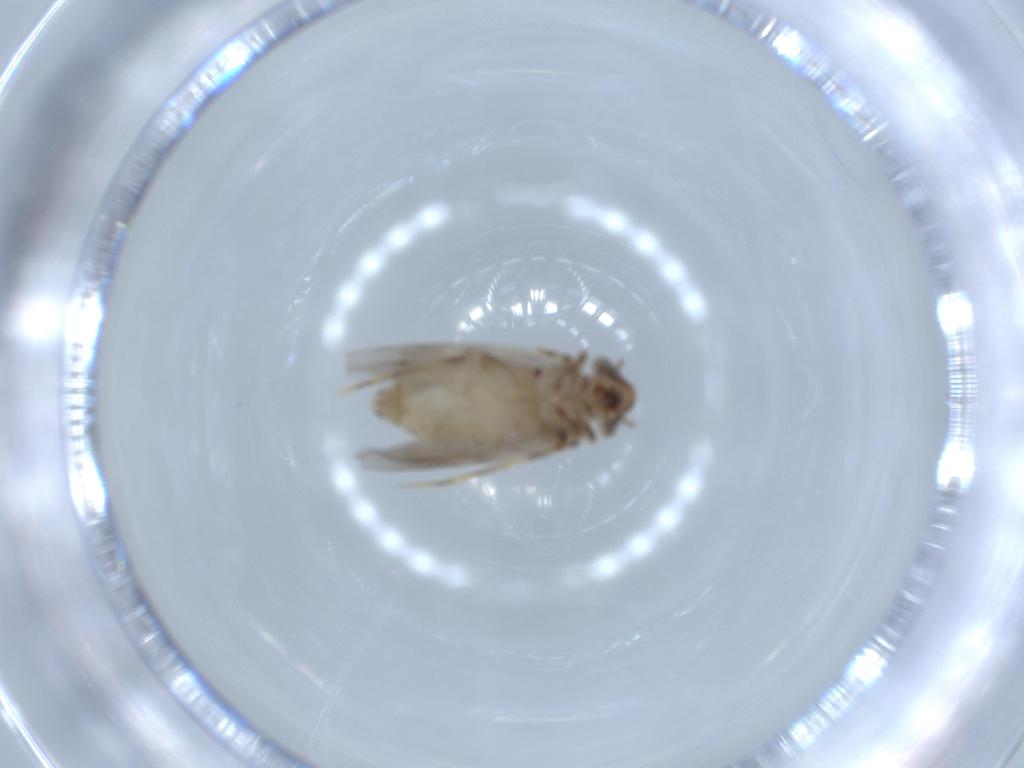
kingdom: Animalia
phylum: Arthropoda
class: Insecta
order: Psocodea
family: Lepidopsocidae
